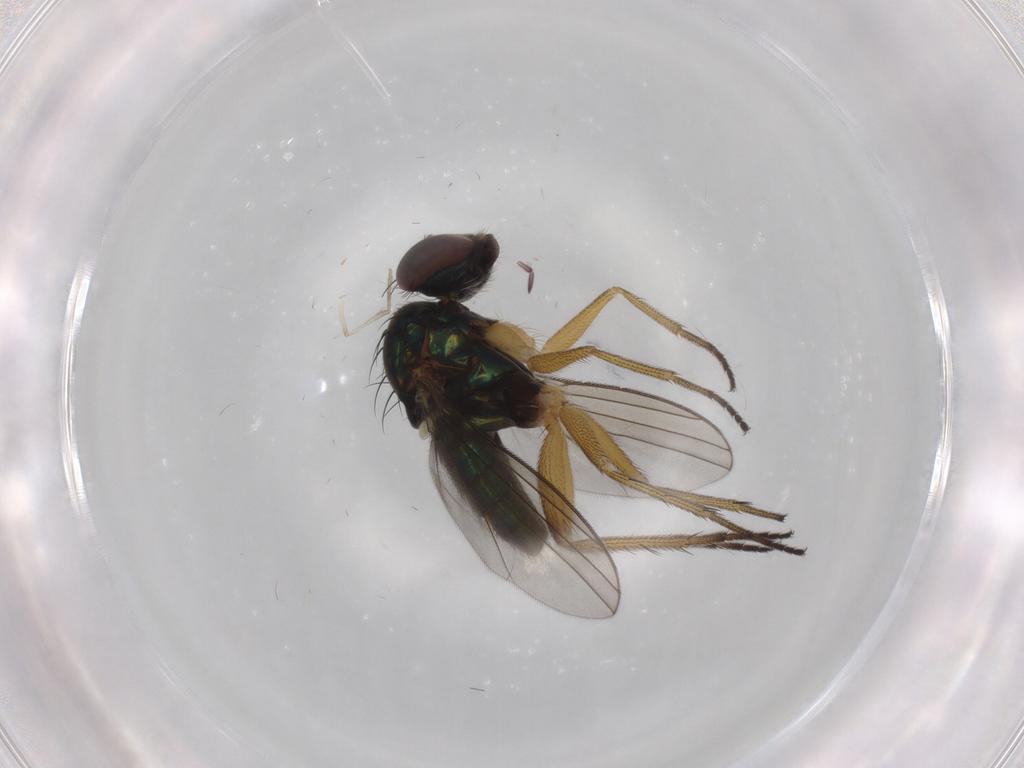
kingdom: Animalia
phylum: Arthropoda
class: Insecta
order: Diptera
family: Dolichopodidae
